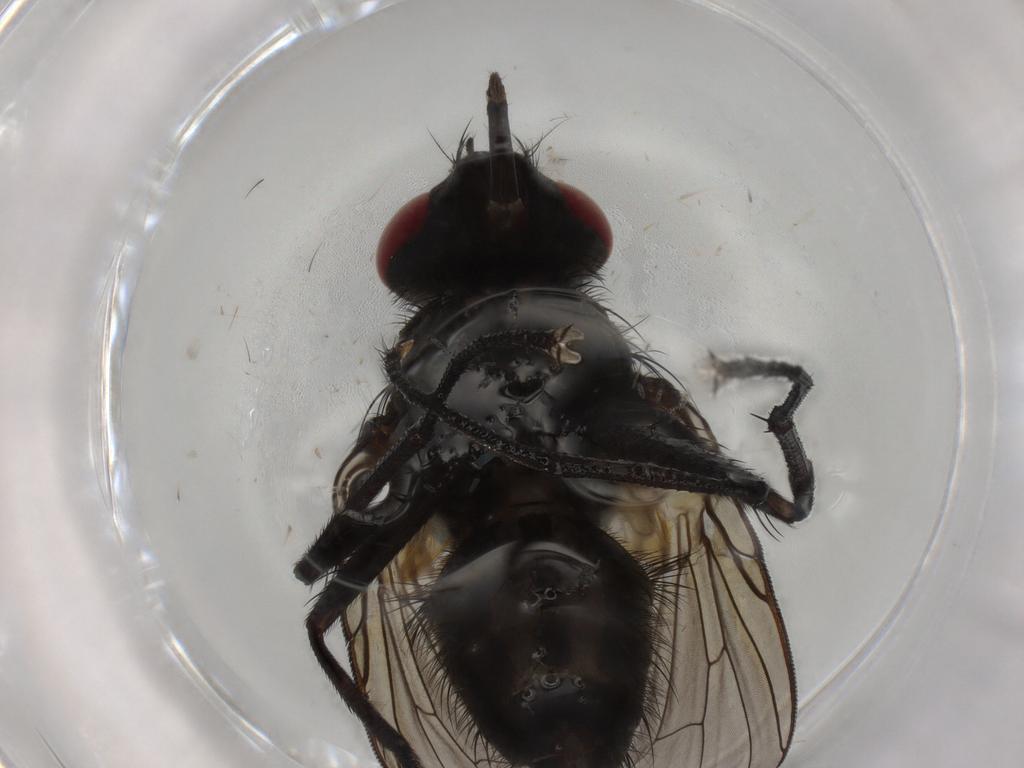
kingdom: Animalia
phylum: Arthropoda
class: Insecta
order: Diptera
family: Muscidae
